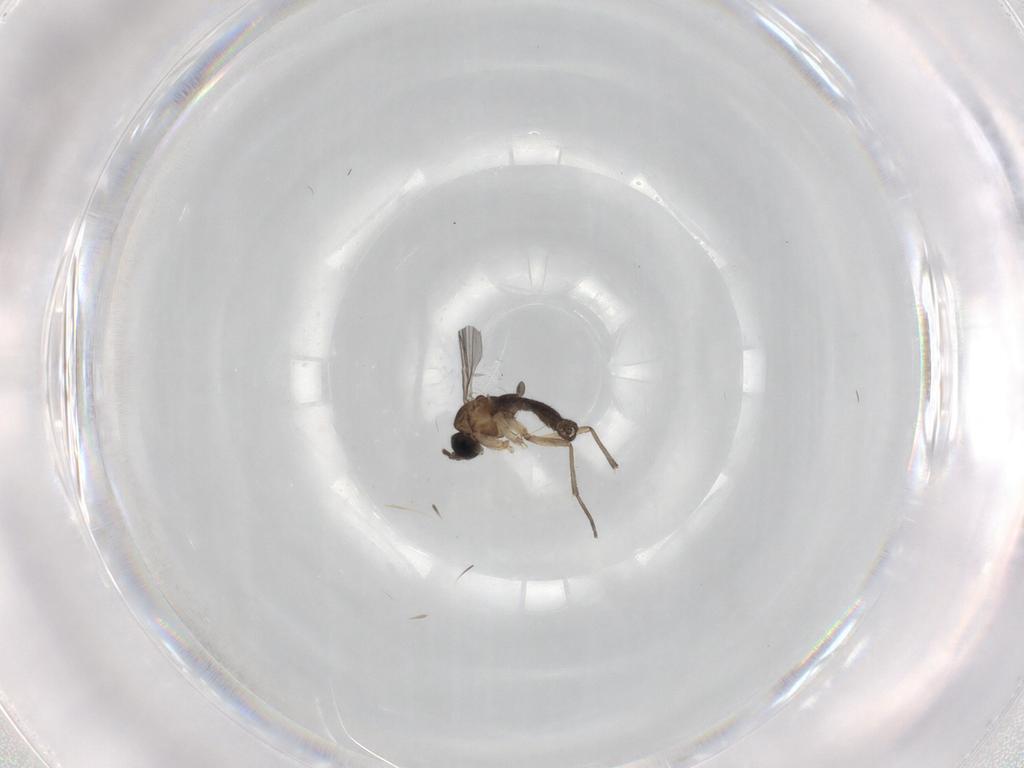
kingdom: Animalia
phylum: Arthropoda
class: Insecta
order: Diptera
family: Sciaridae
